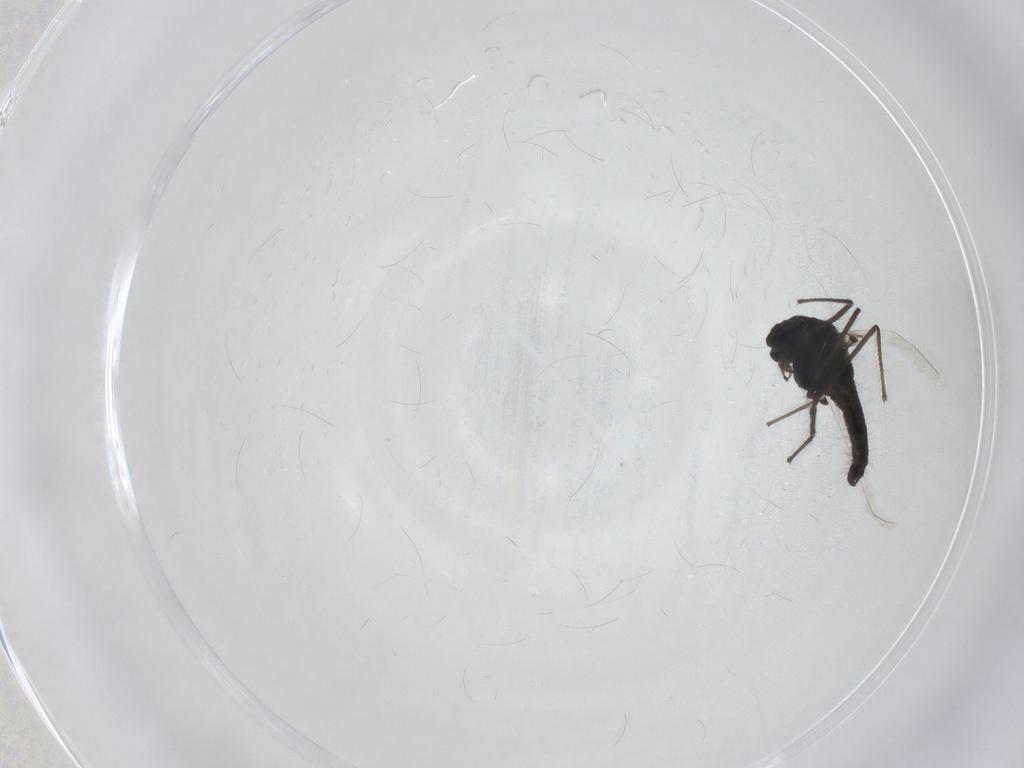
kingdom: Animalia
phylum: Arthropoda
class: Insecta
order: Diptera
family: Chironomidae
